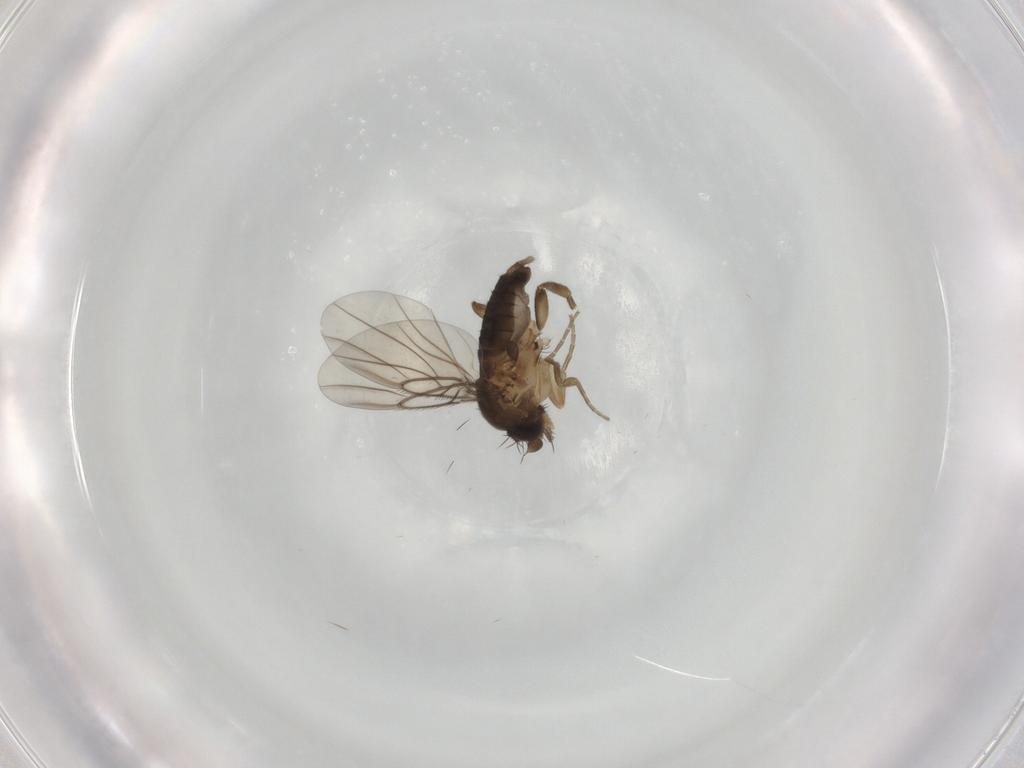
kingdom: Animalia
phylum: Arthropoda
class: Insecta
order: Diptera
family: Phoridae
